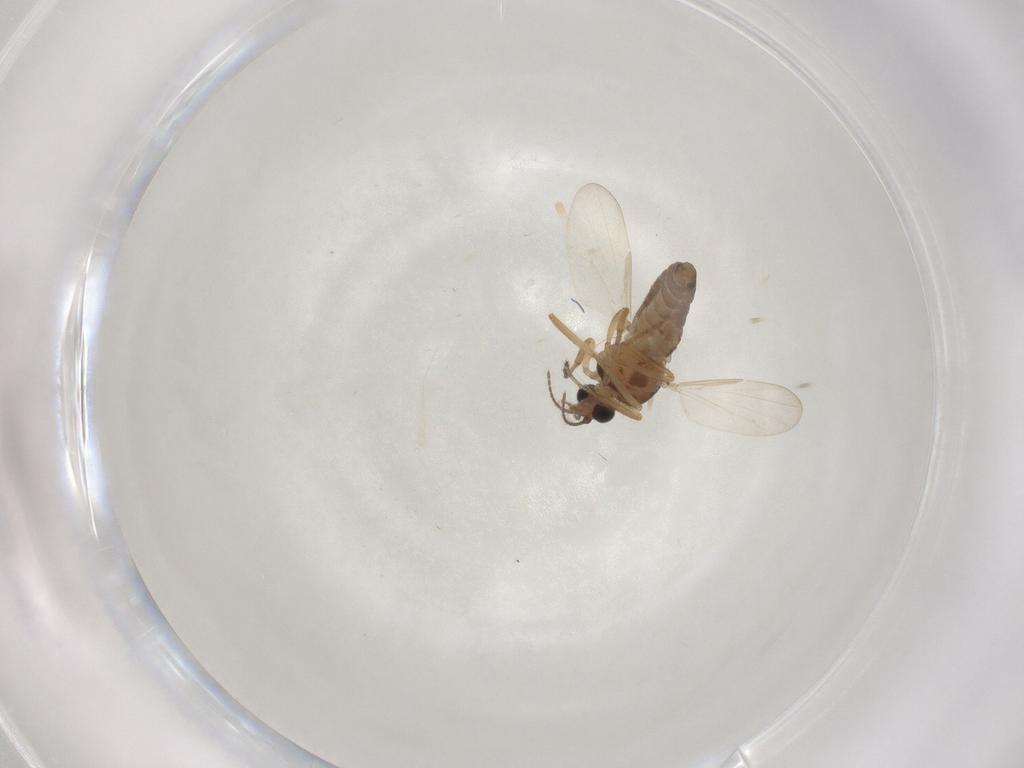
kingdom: Animalia
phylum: Arthropoda
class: Insecta
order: Diptera
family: Ceratopogonidae
